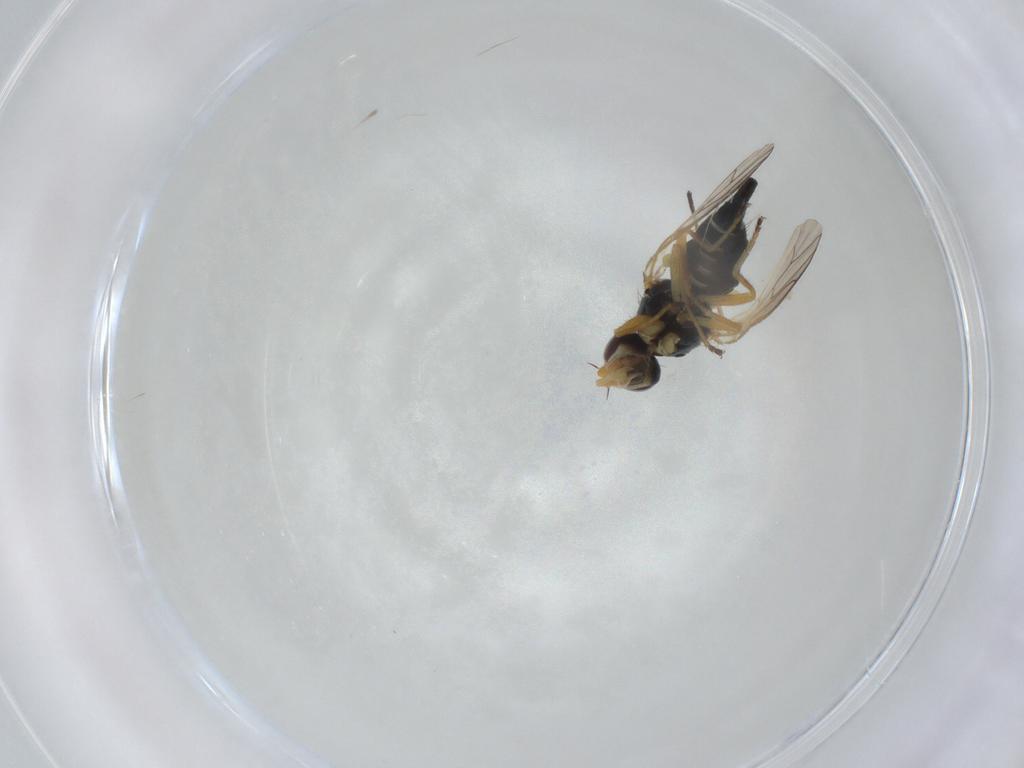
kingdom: Animalia
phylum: Arthropoda
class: Insecta
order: Diptera
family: Tephritidae
